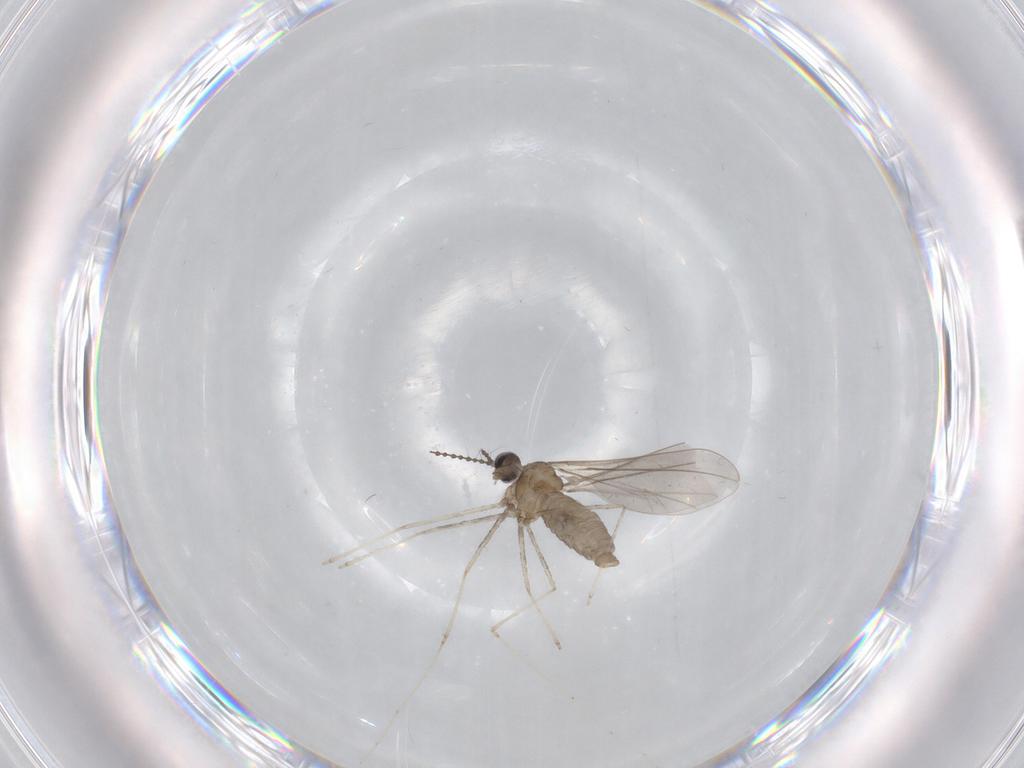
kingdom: Animalia
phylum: Arthropoda
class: Insecta
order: Diptera
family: Cecidomyiidae
